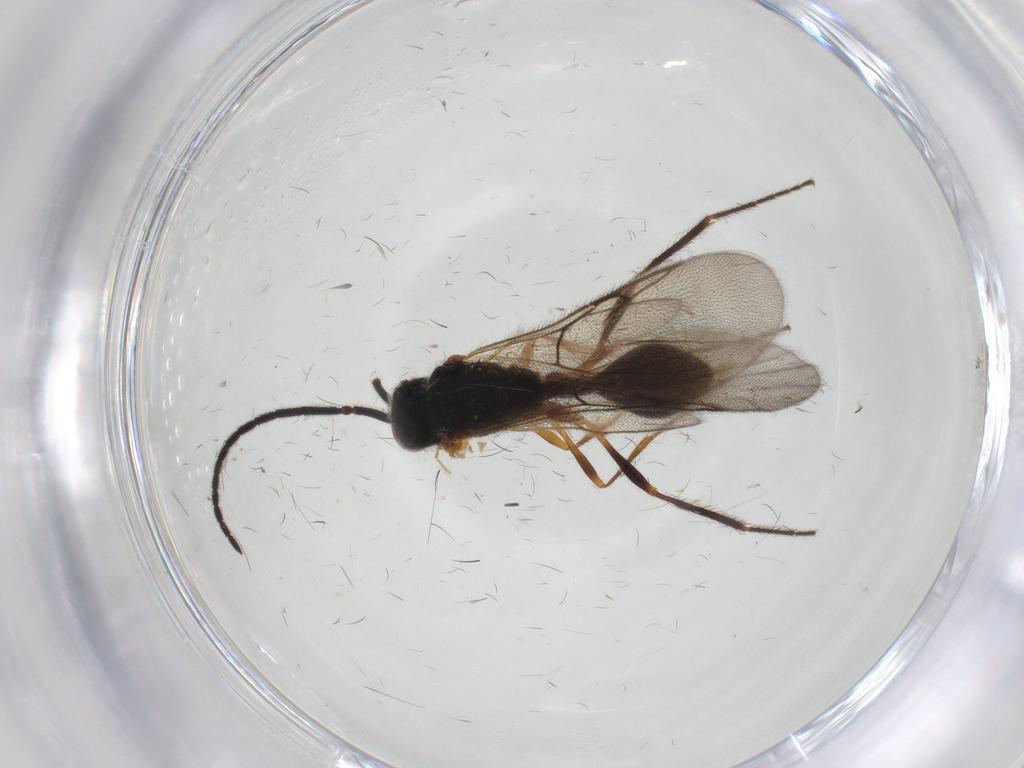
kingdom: Animalia
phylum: Arthropoda
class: Insecta
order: Hymenoptera
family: Diapriidae
